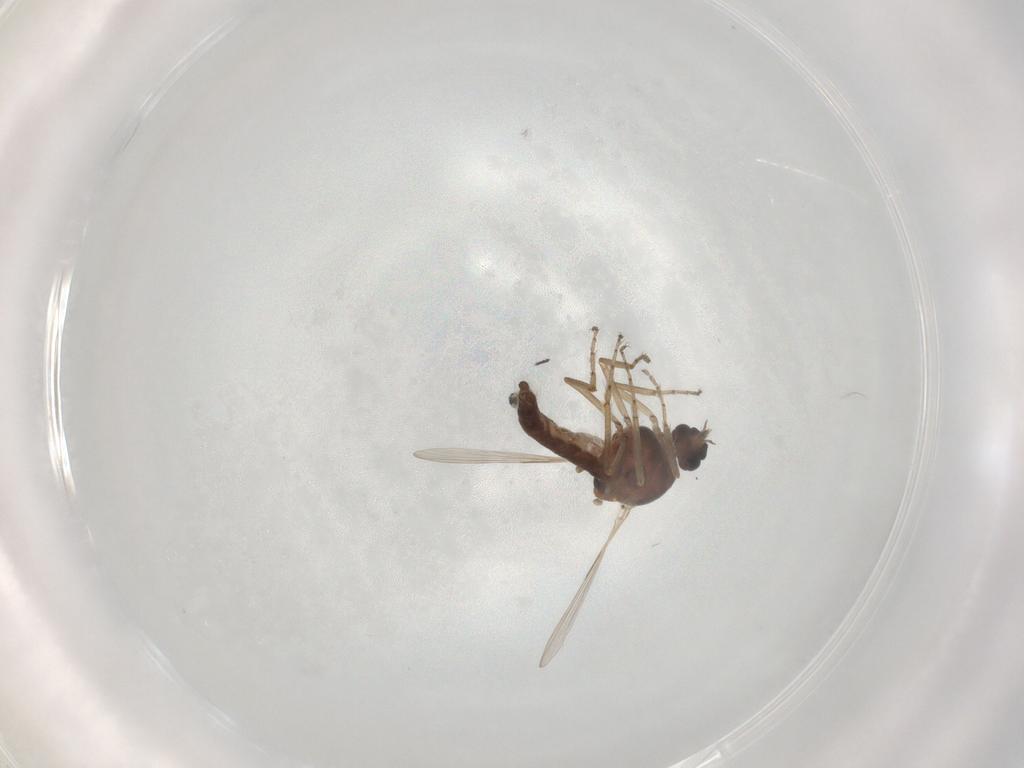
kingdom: Animalia
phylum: Arthropoda
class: Insecta
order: Diptera
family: Ceratopogonidae
